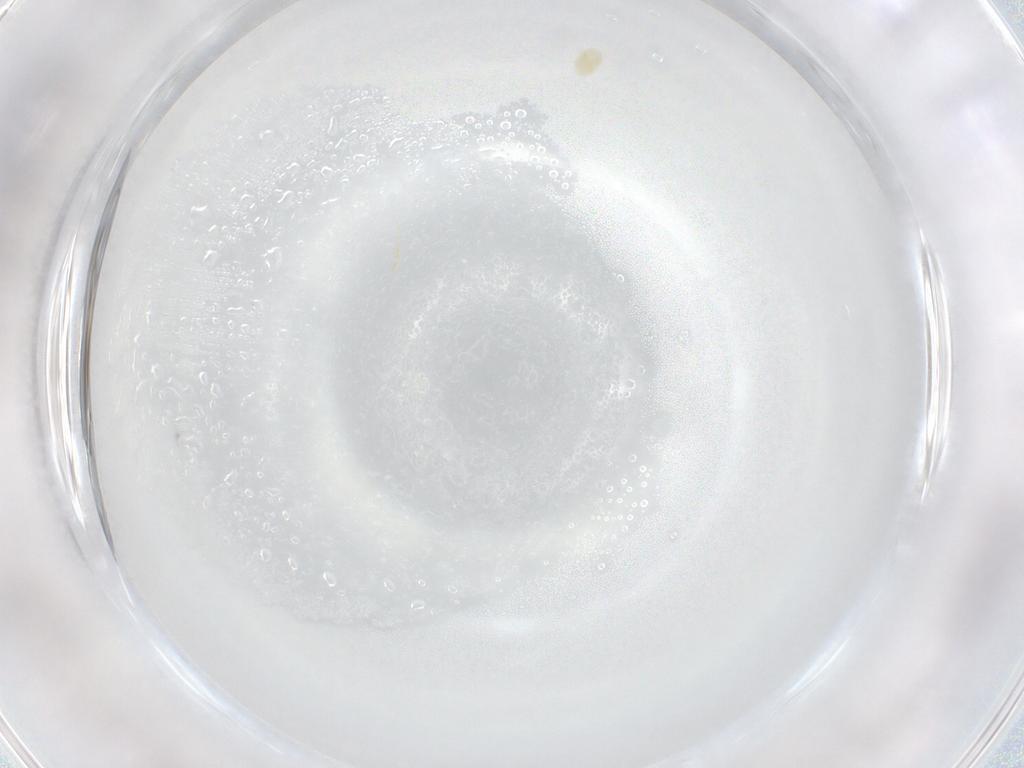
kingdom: Animalia
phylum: Arthropoda
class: Arachnida
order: Trombidiformes
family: Eupodidae
